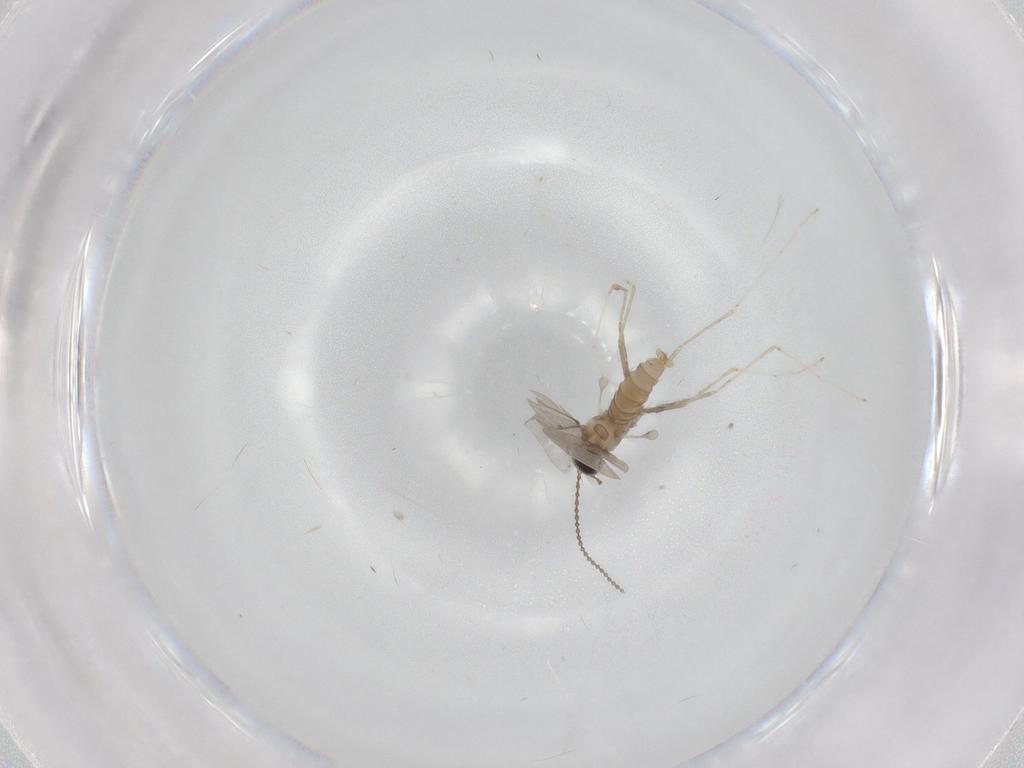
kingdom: Animalia
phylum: Arthropoda
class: Insecta
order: Diptera
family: Cecidomyiidae
